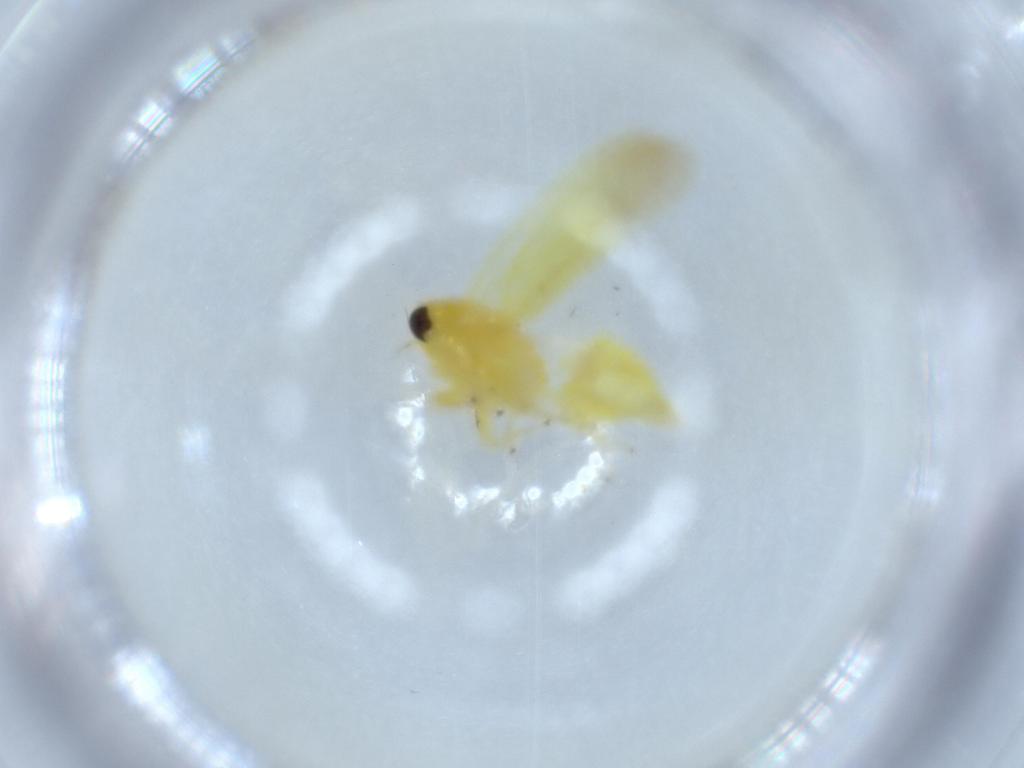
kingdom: Animalia
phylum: Arthropoda
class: Insecta
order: Hemiptera
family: Cicadellidae
